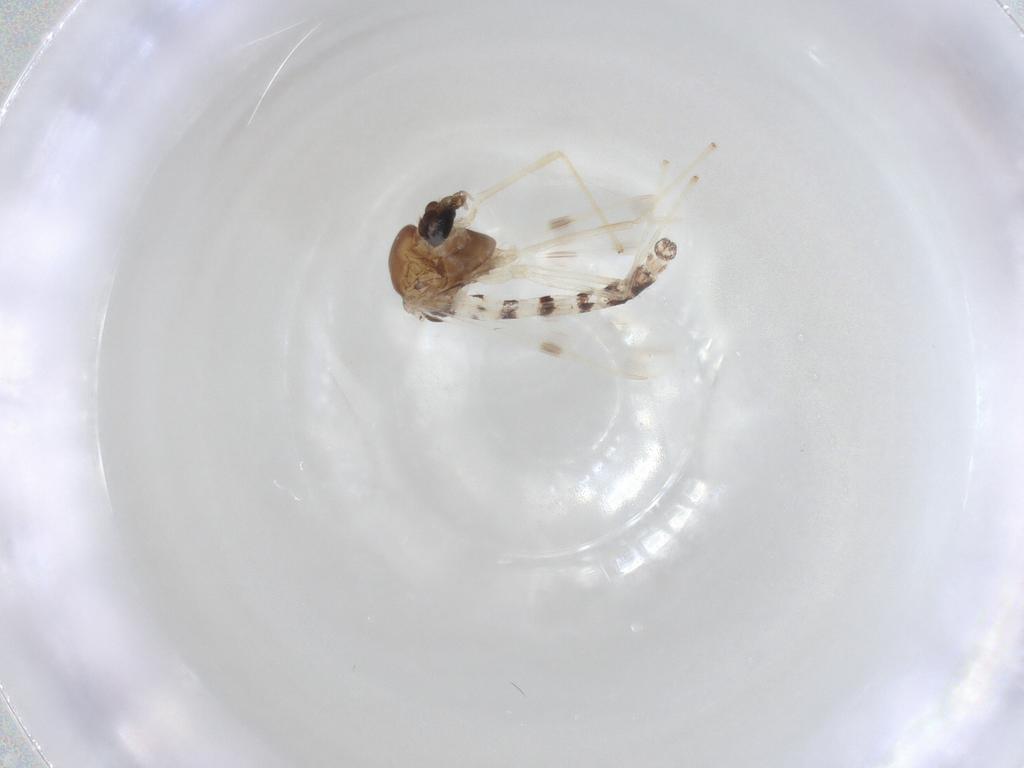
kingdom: Animalia
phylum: Arthropoda
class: Insecta
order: Diptera
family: Chironomidae
